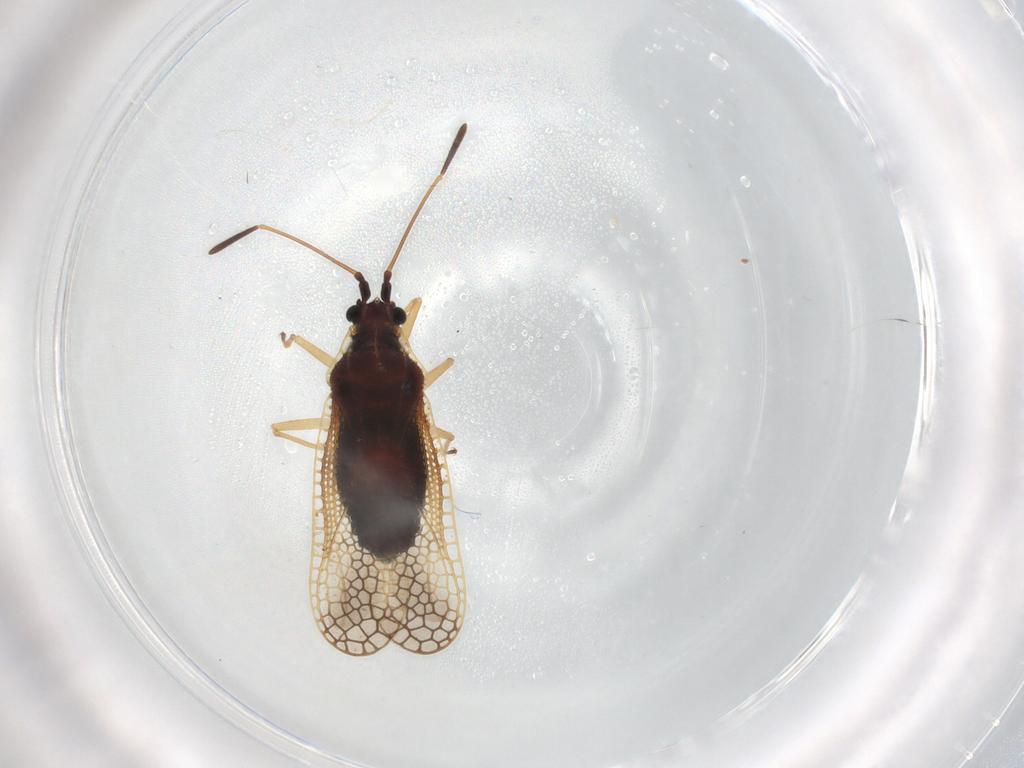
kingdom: Animalia
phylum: Arthropoda
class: Insecta
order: Hemiptera
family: Tingidae
